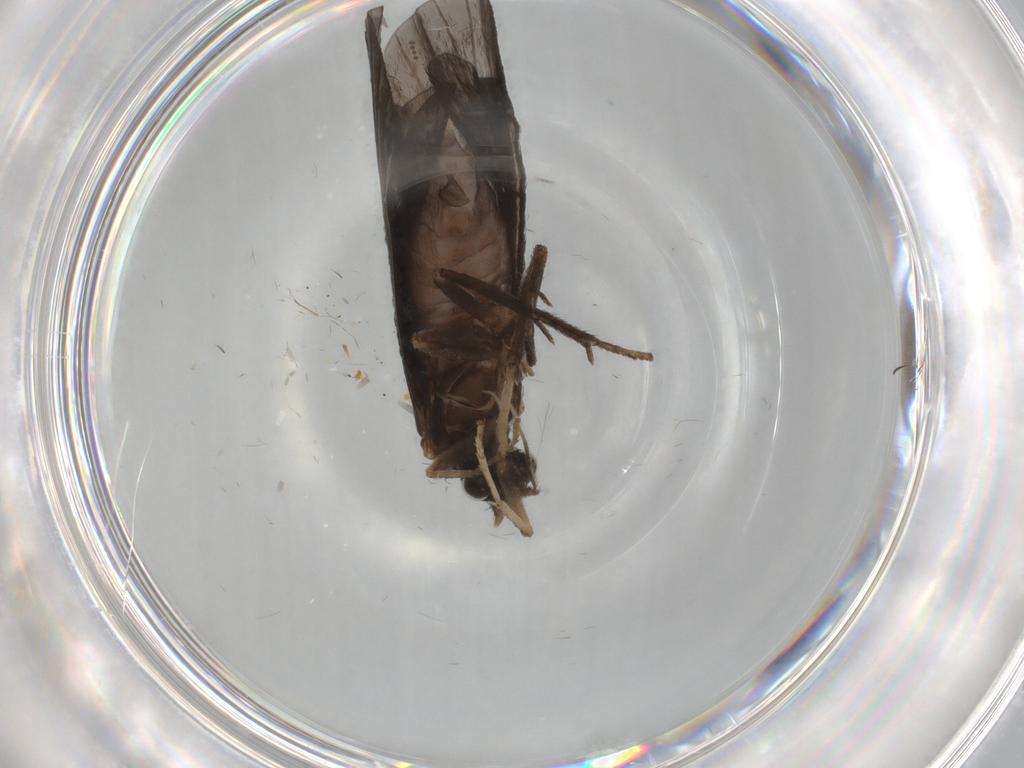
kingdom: Animalia
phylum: Arthropoda
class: Insecta
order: Trichoptera
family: Hydropsychidae
